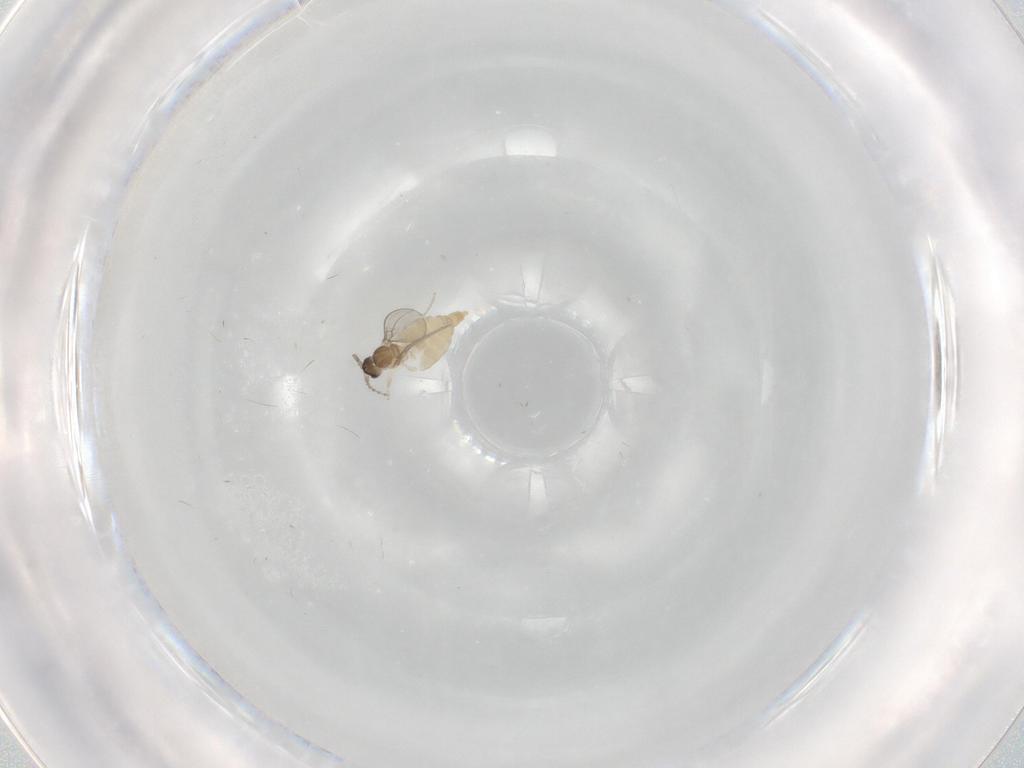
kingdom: Animalia
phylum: Arthropoda
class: Insecta
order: Diptera
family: Cecidomyiidae
